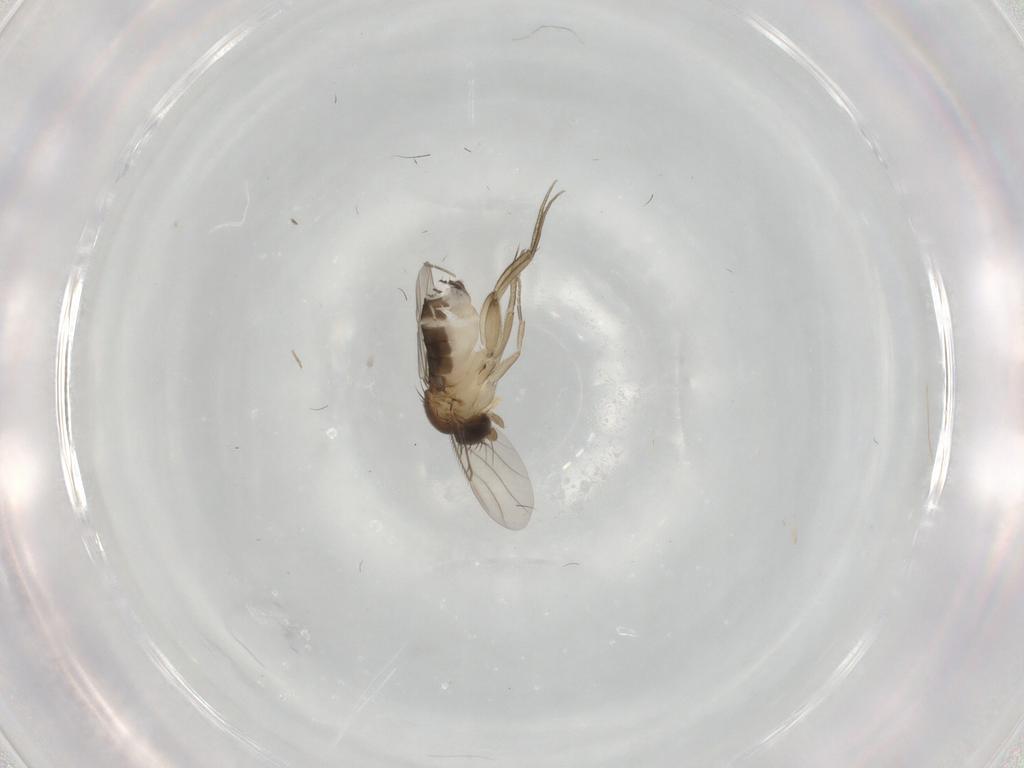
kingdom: Animalia
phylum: Arthropoda
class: Insecta
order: Diptera
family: Phoridae
